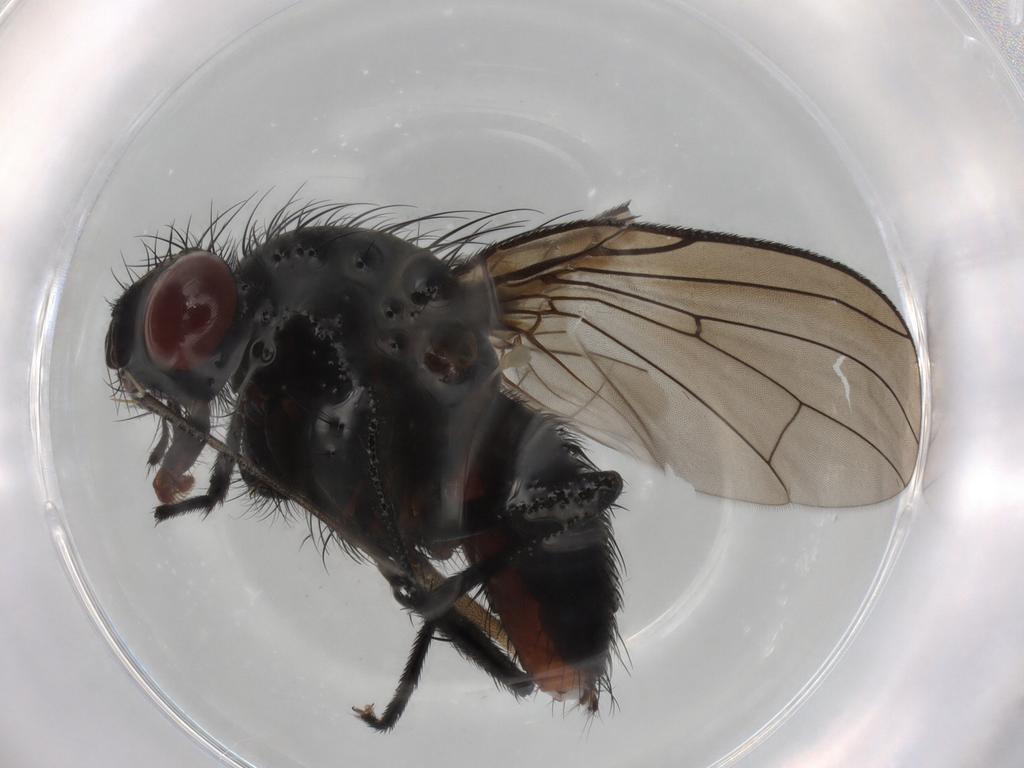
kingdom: Animalia
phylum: Arthropoda
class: Insecta
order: Diptera
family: Anthomyiidae
